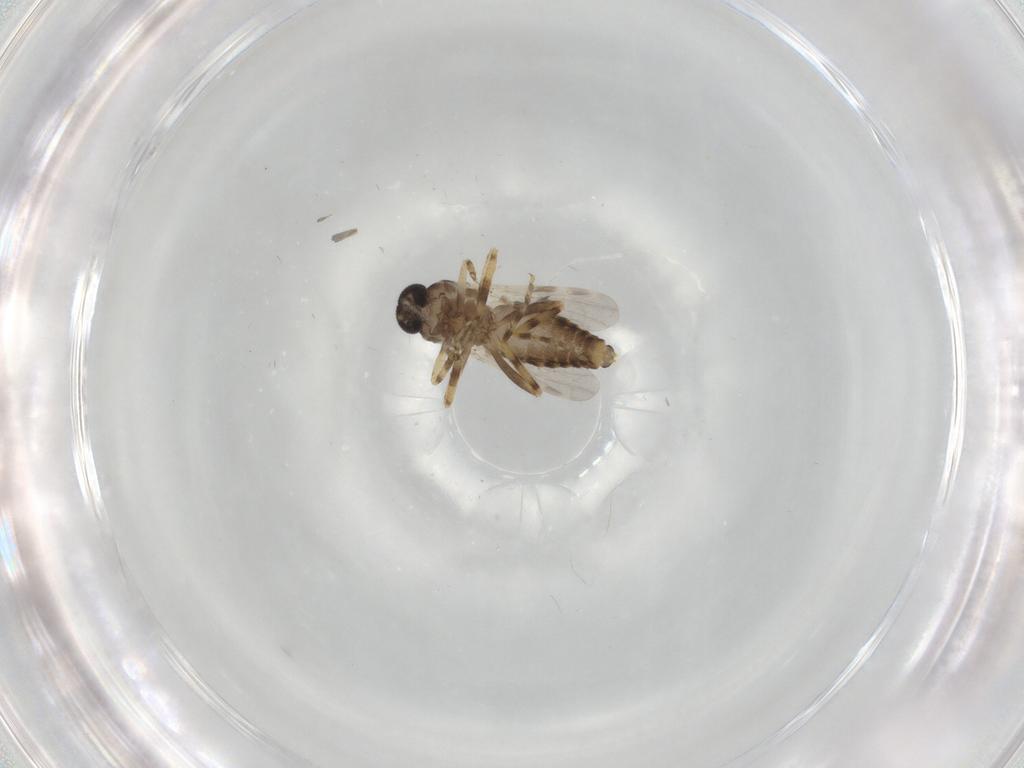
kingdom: Animalia
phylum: Arthropoda
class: Insecta
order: Diptera
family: Ceratopogonidae
